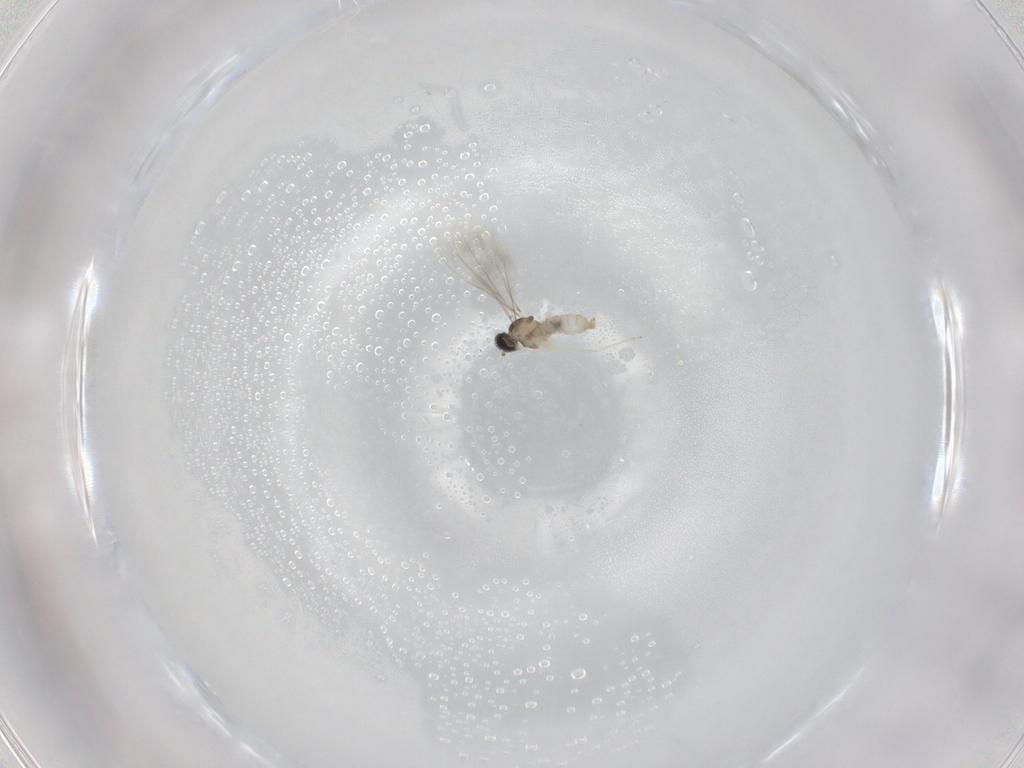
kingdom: Animalia
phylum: Arthropoda
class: Insecta
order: Diptera
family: Cecidomyiidae
